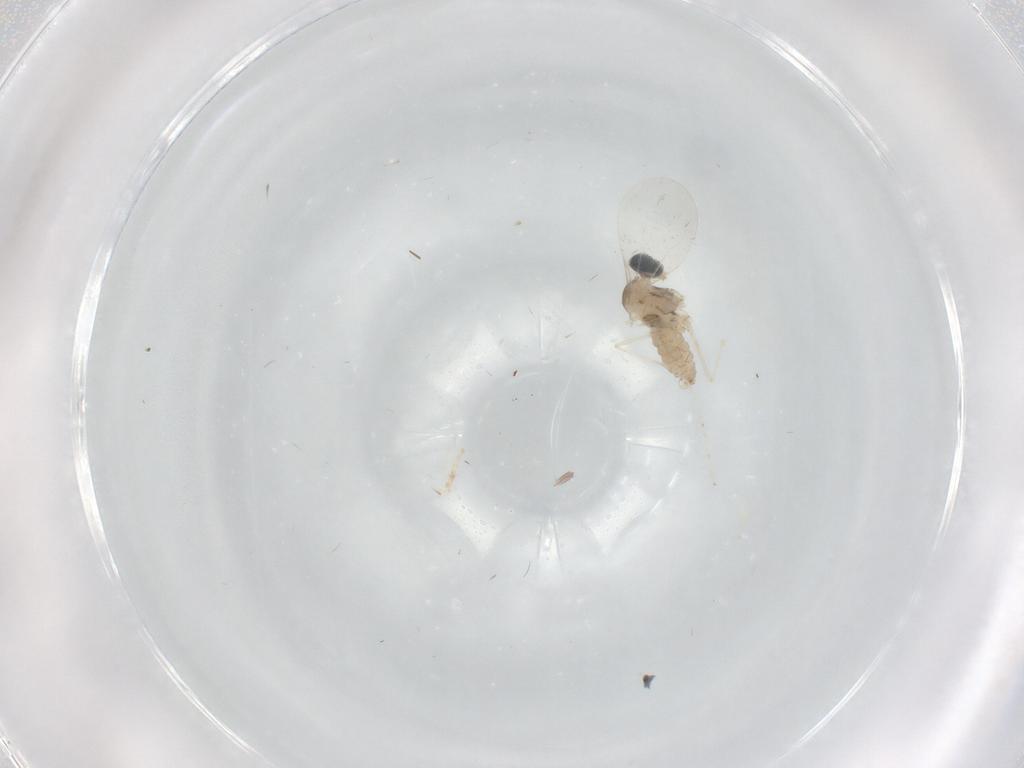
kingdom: Animalia
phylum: Arthropoda
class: Insecta
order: Diptera
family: Cecidomyiidae
